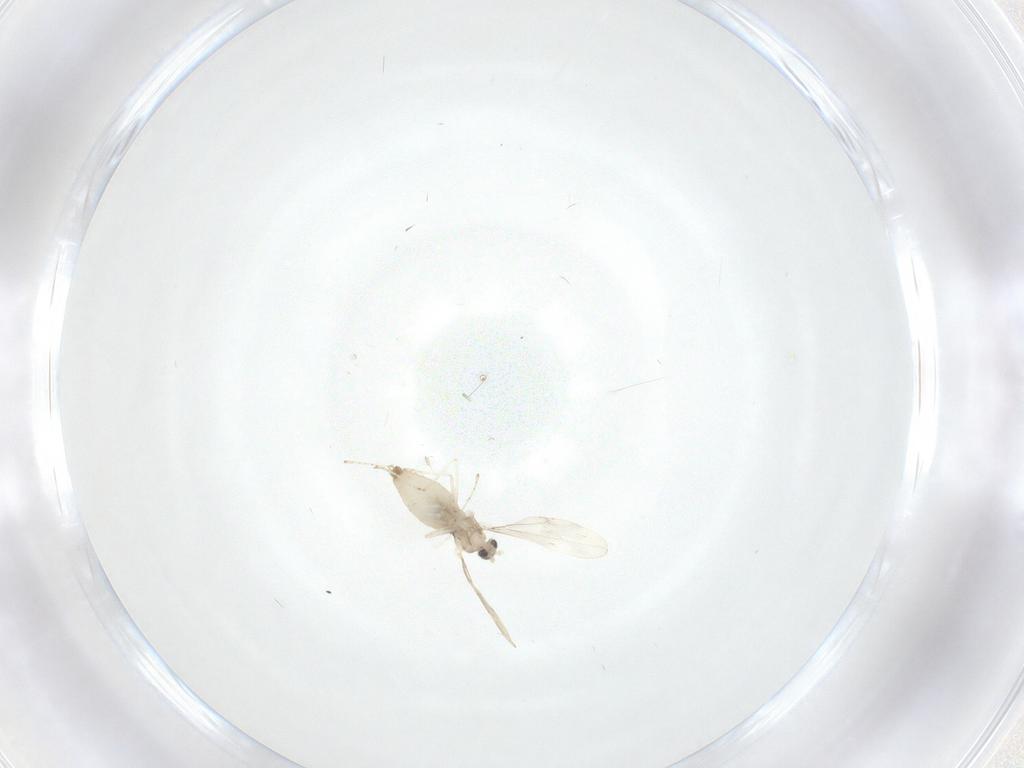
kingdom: Animalia
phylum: Arthropoda
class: Insecta
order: Diptera
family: Cecidomyiidae
